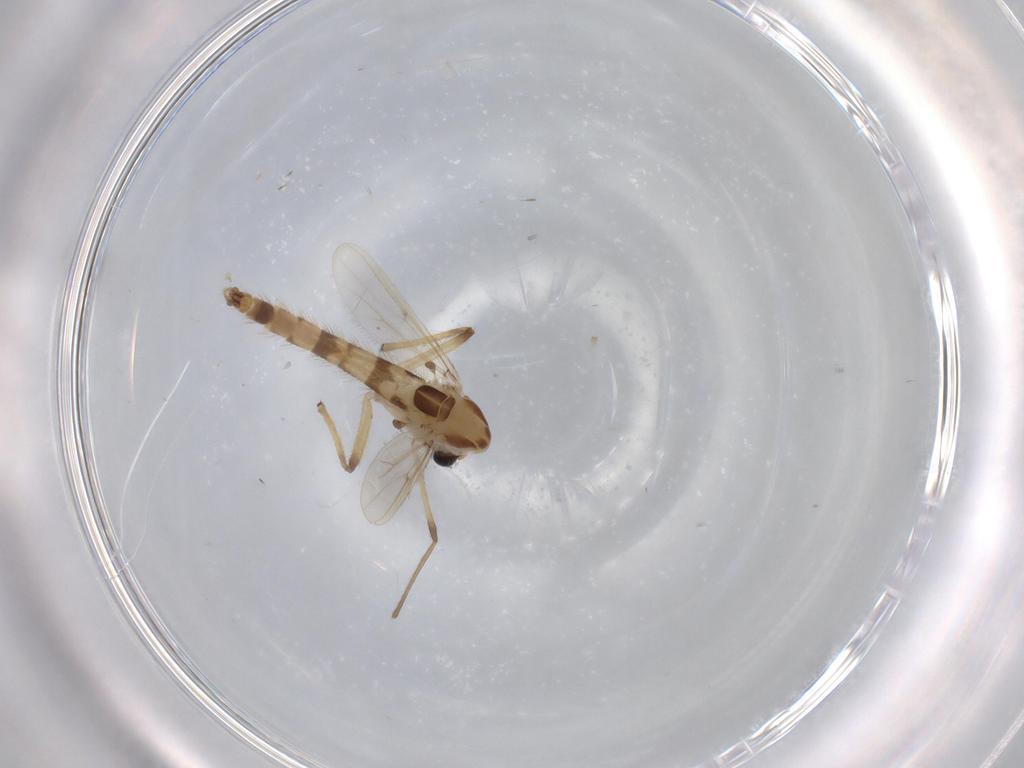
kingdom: Animalia
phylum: Arthropoda
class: Insecta
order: Diptera
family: Chironomidae
